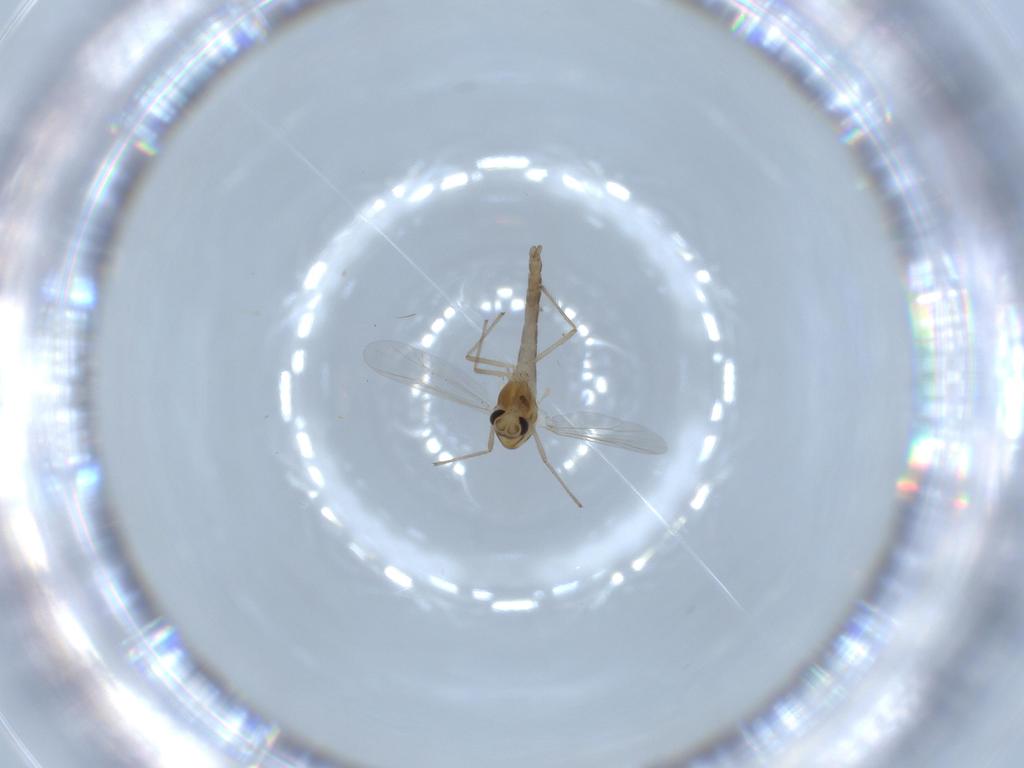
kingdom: Animalia
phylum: Arthropoda
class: Insecta
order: Diptera
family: Chironomidae
